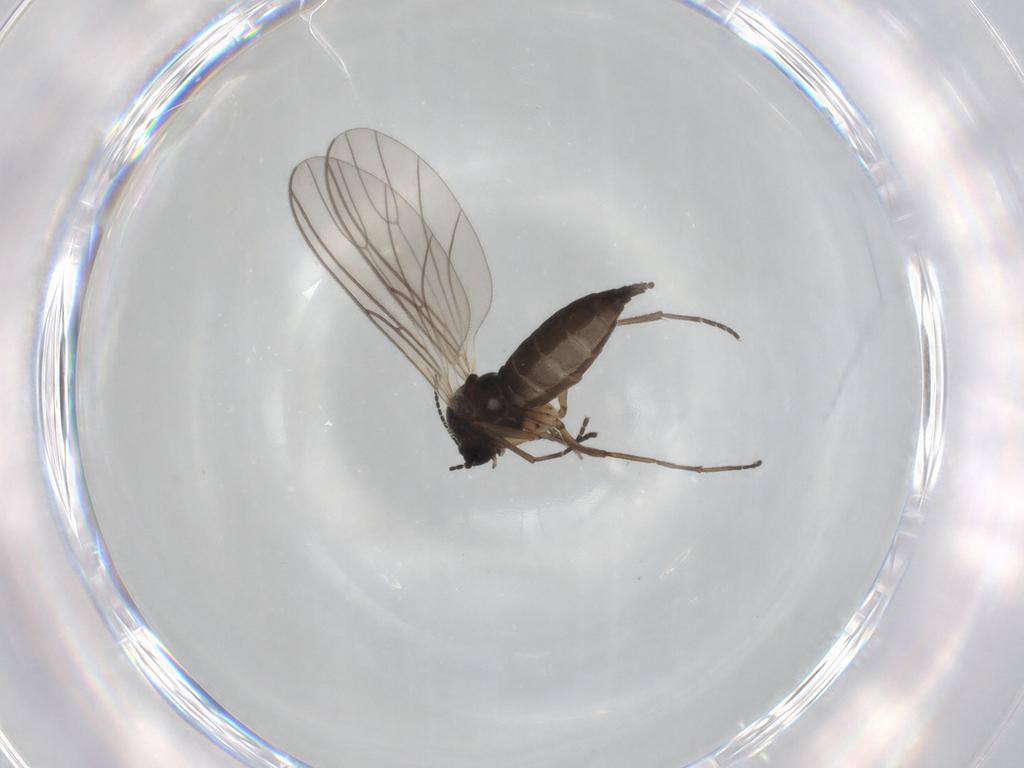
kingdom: Animalia
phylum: Arthropoda
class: Insecta
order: Diptera
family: Sciaridae
